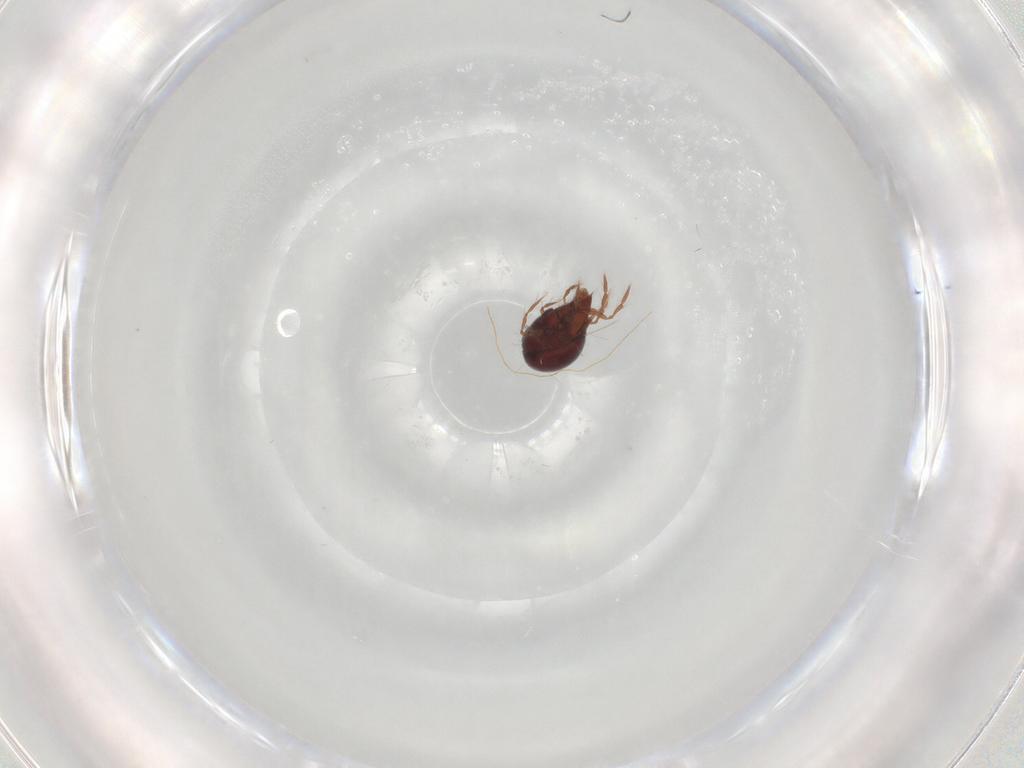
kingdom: Animalia
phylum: Arthropoda
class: Arachnida
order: Sarcoptiformes
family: Ceratoppiidae
